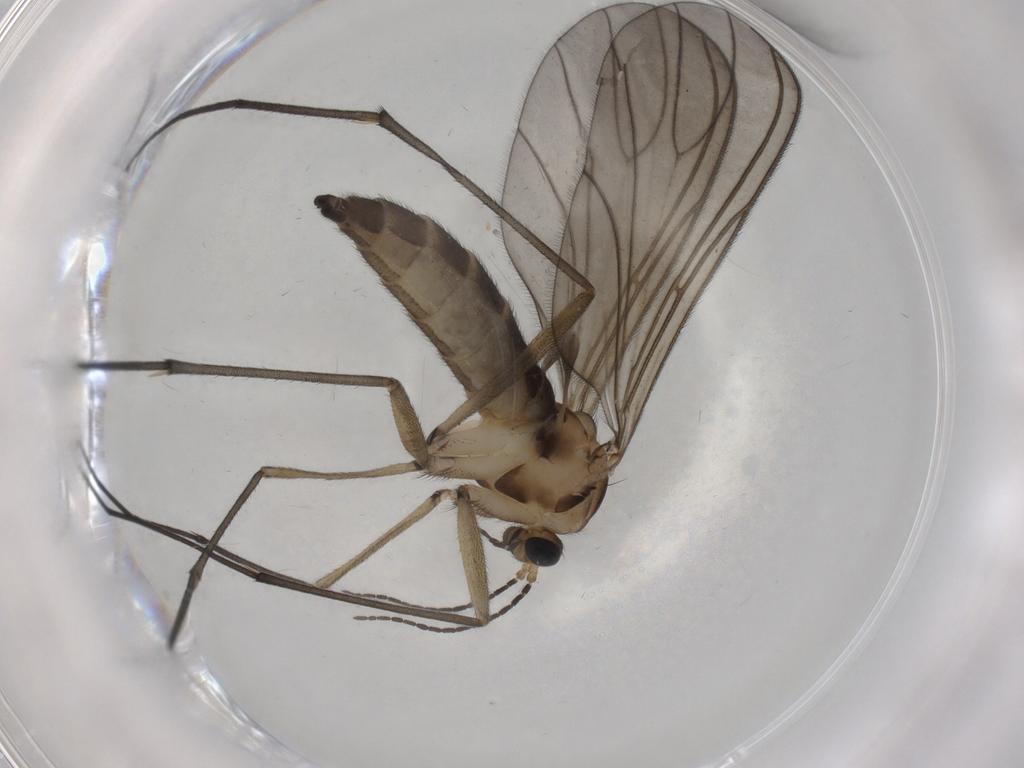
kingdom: Animalia
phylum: Arthropoda
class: Insecta
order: Diptera
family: Sciaridae
